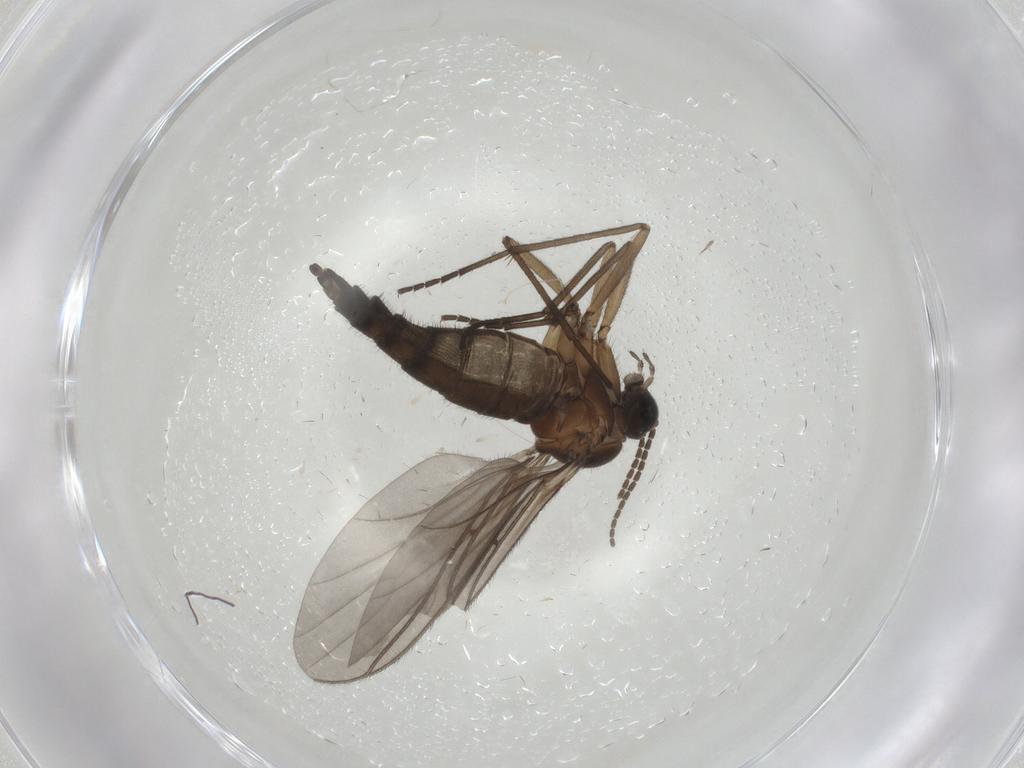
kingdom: Animalia
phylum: Arthropoda
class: Insecta
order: Diptera
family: Sciaridae
